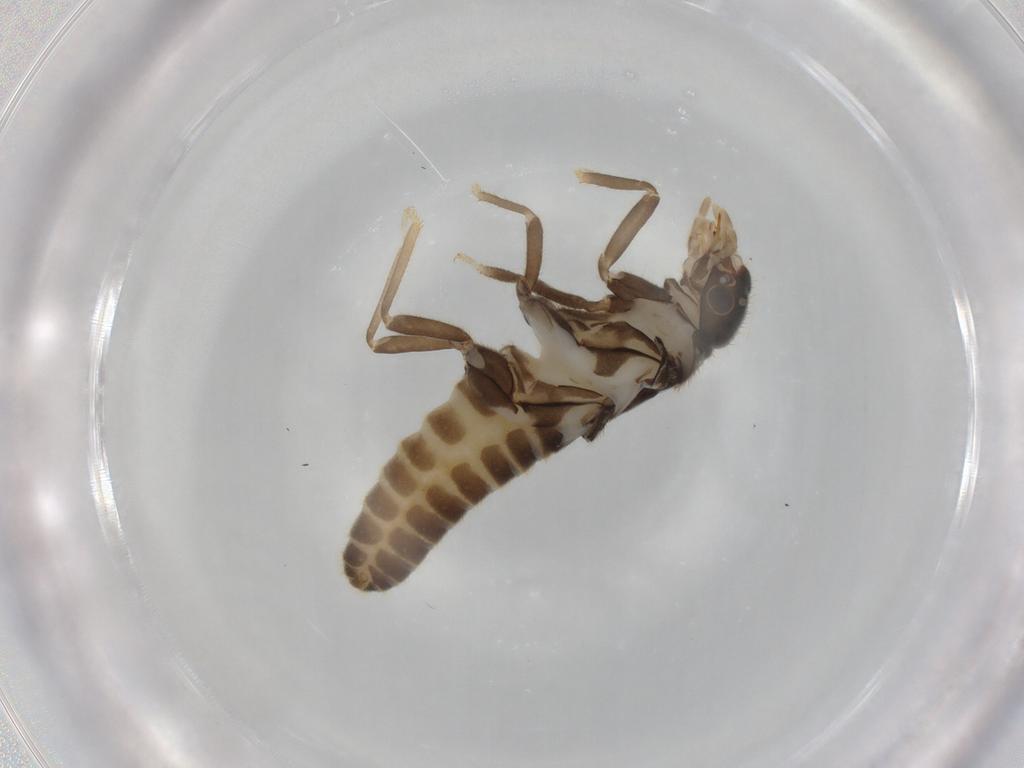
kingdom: Animalia
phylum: Arthropoda
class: Insecta
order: Blattodea
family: Termitidae
